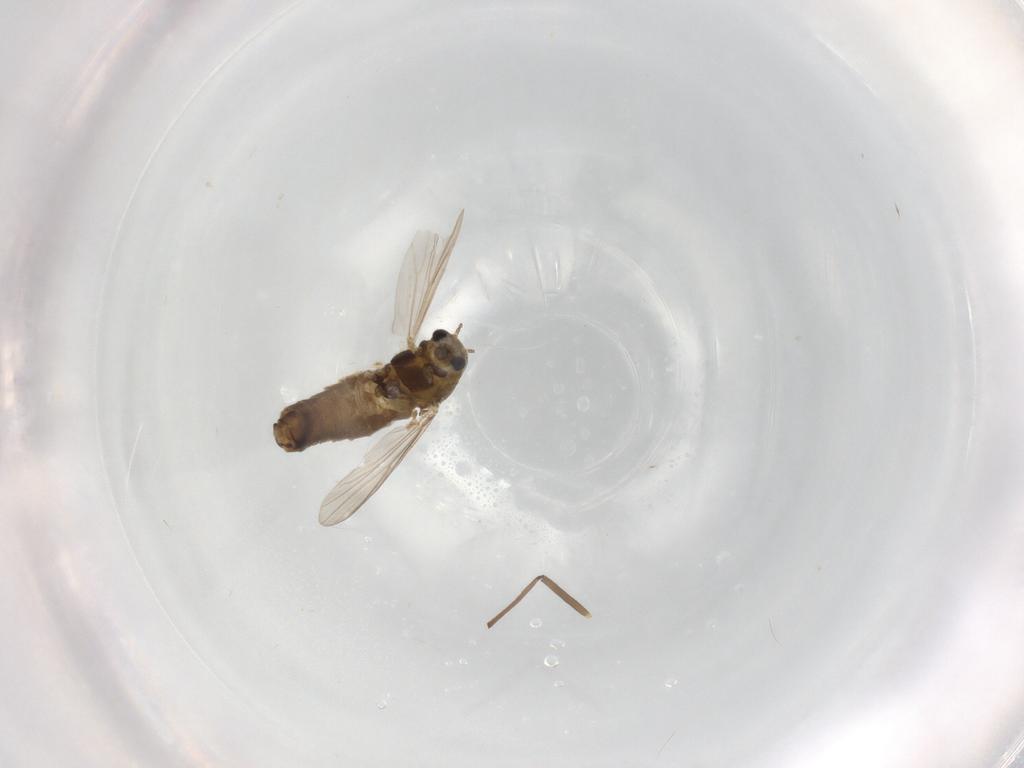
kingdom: Animalia
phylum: Arthropoda
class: Insecta
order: Diptera
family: Chironomidae
